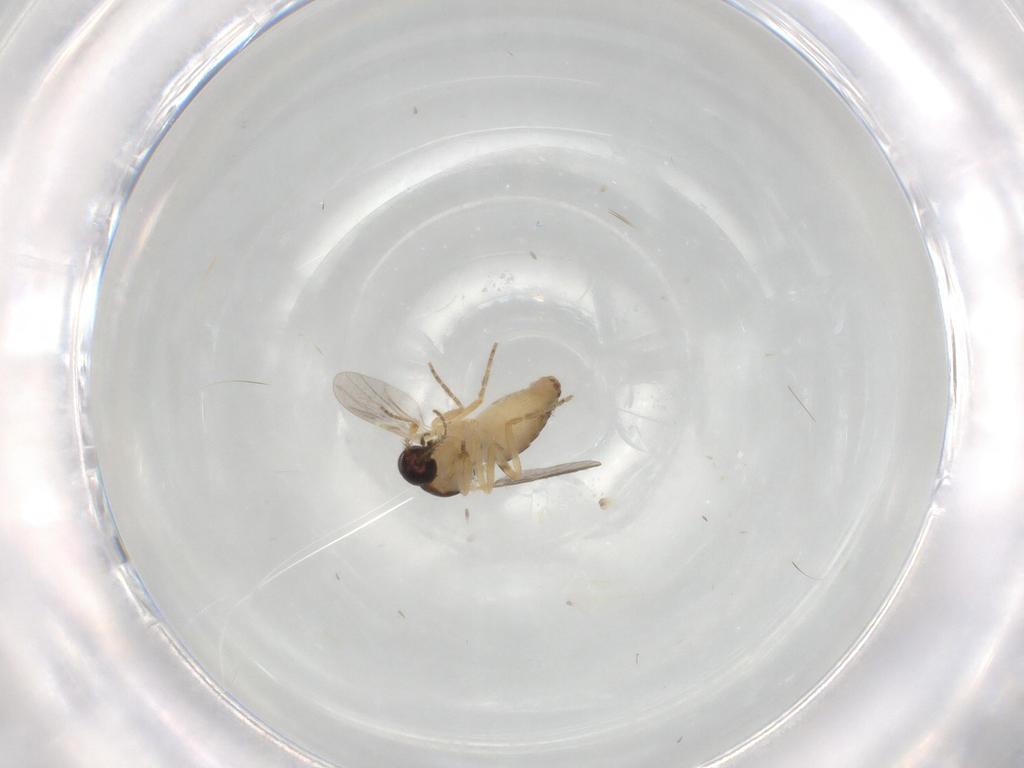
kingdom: Animalia
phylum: Arthropoda
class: Insecta
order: Diptera
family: Ceratopogonidae
